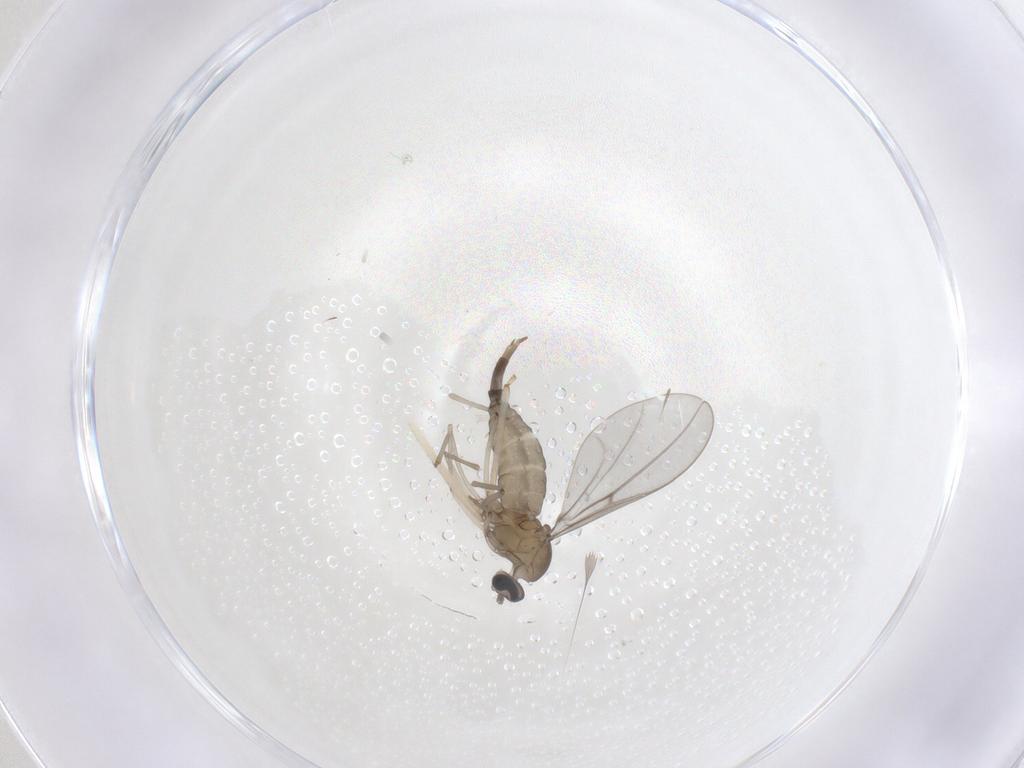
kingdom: Animalia
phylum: Arthropoda
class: Insecta
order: Diptera
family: Cecidomyiidae
